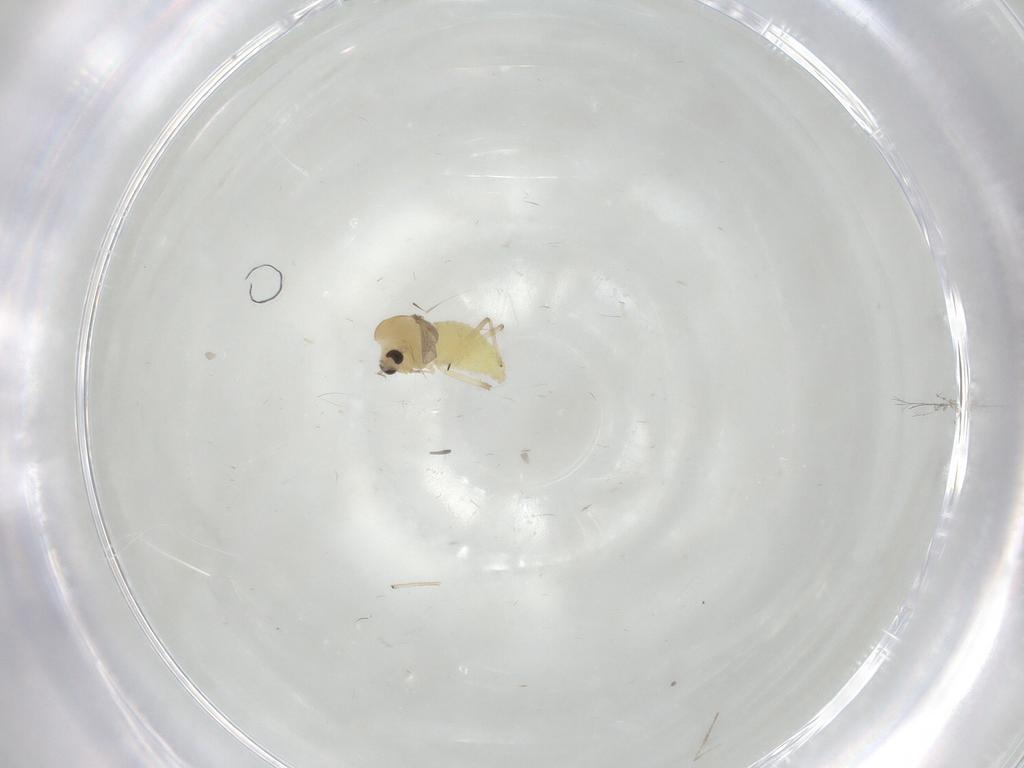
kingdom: Animalia
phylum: Arthropoda
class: Insecta
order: Diptera
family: Chironomidae
